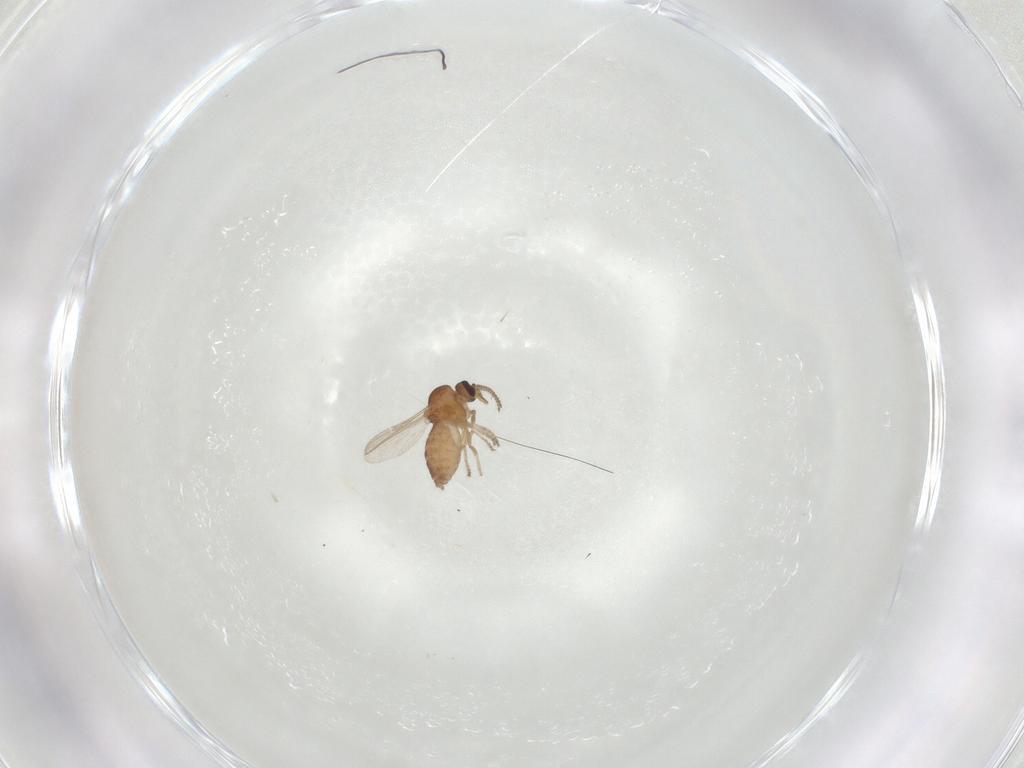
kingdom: Animalia
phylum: Arthropoda
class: Insecta
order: Diptera
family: Ceratopogonidae
